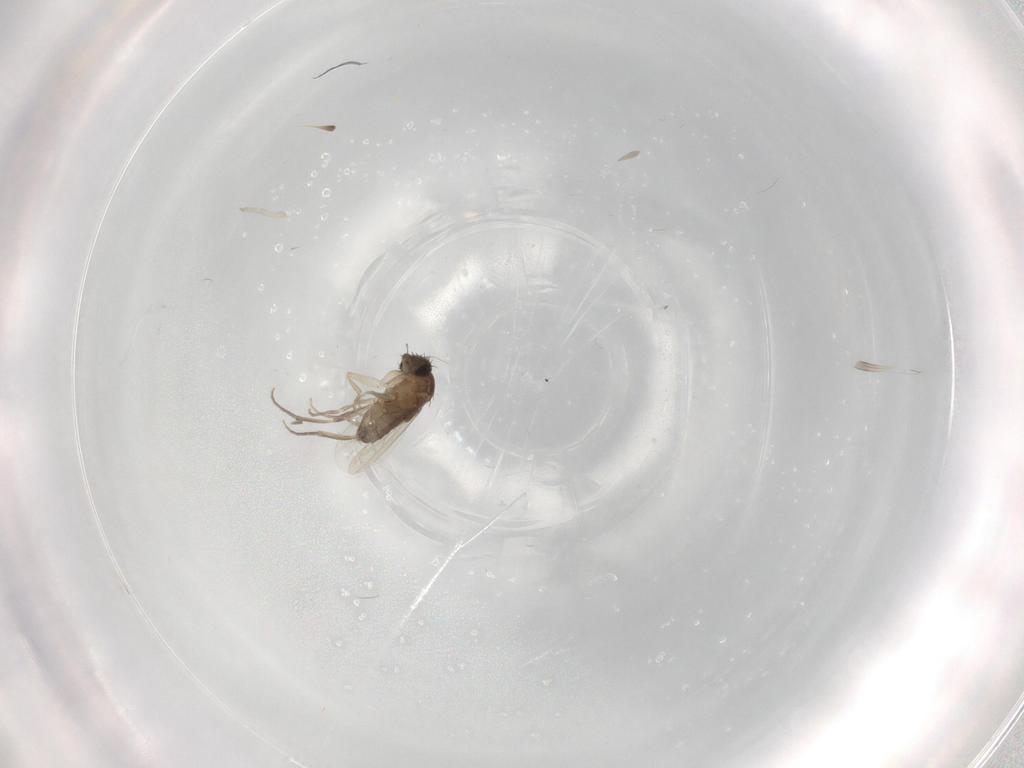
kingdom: Animalia
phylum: Arthropoda
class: Insecta
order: Diptera
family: Phoridae
